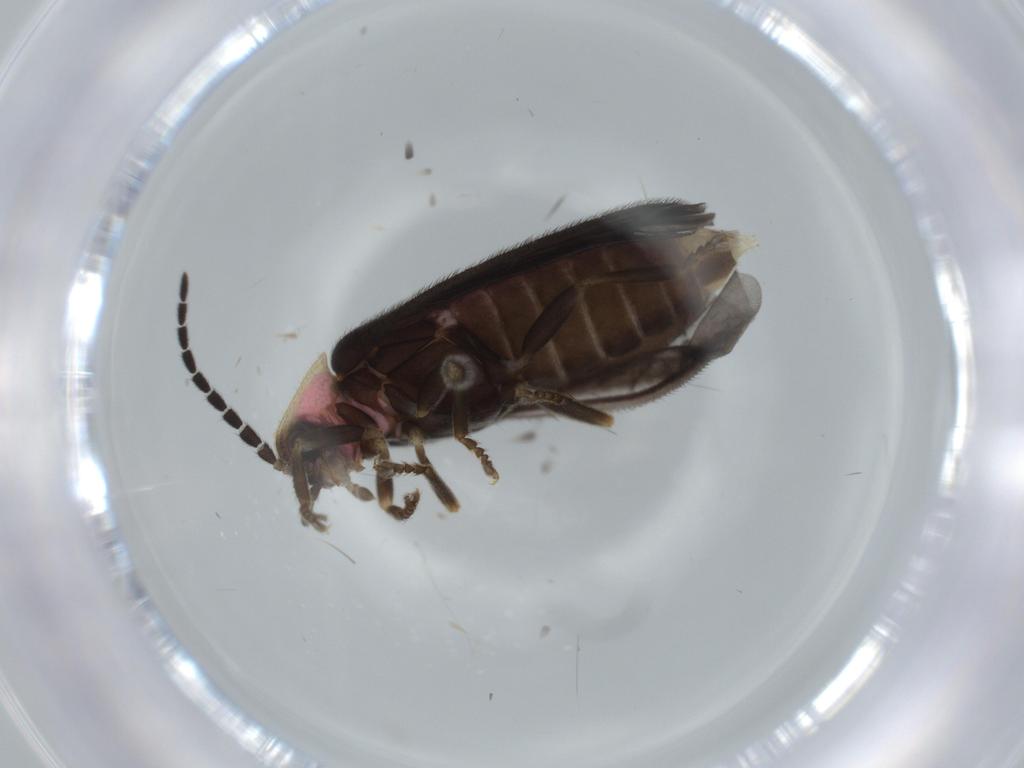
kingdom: Animalia
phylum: Arthropoda
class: Insecta
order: Coleoptera
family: Lampyridae
